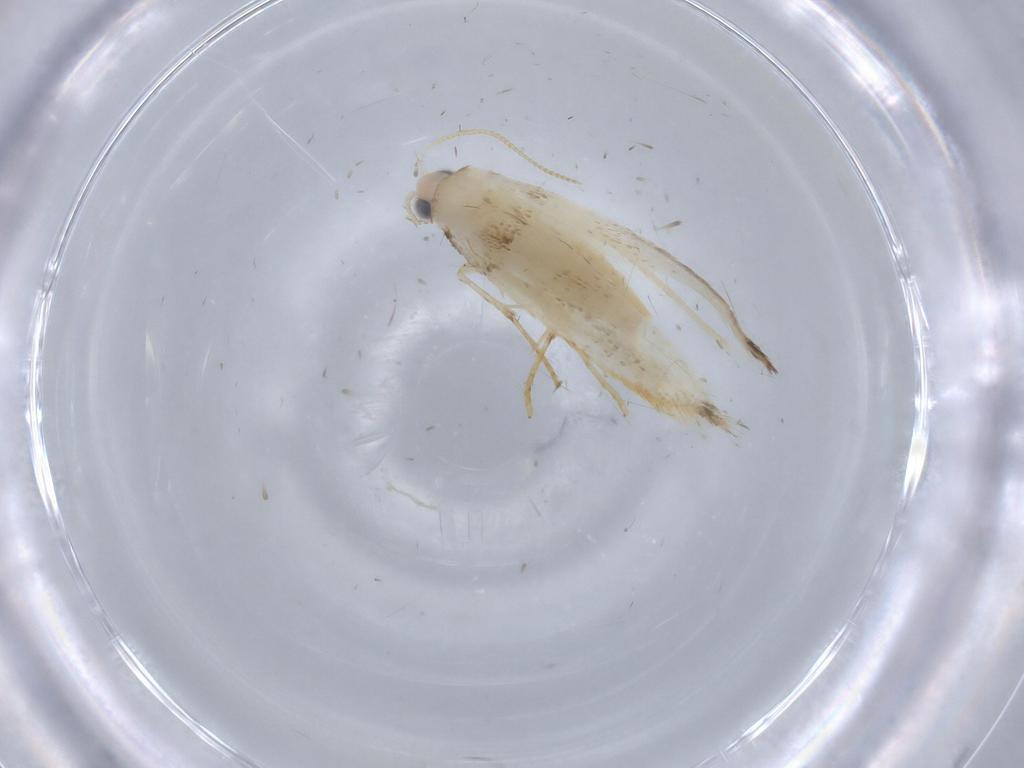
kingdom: Animalia
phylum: Arthropoda
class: Insecta
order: Lepidoptera
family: Tineidae
